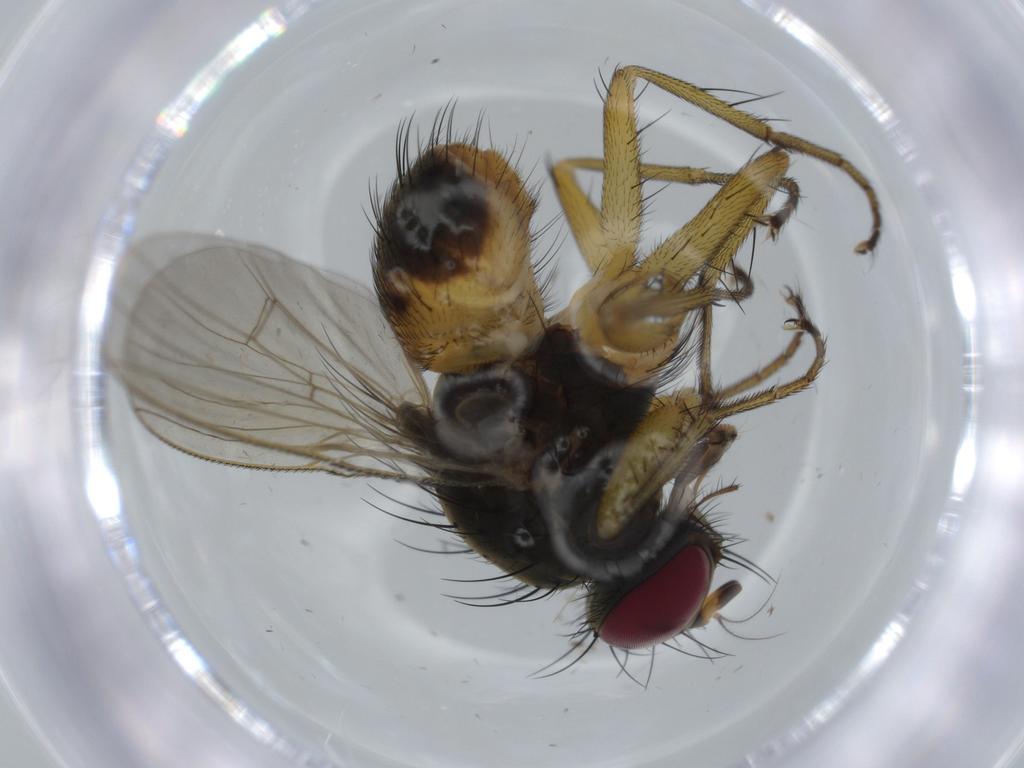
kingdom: Animalia
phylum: Arthropoda
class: Insecta
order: Diptera
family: Muscidae
